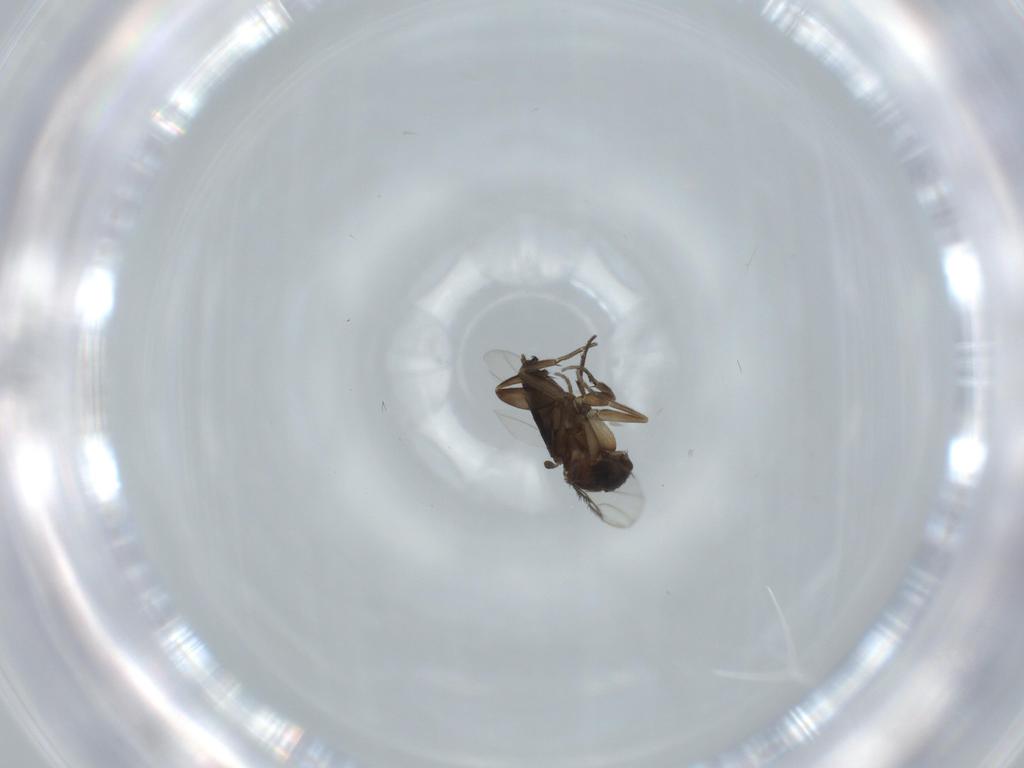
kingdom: Animalia
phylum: Arthropoda
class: Insecta
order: Diptera
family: Phoridae
